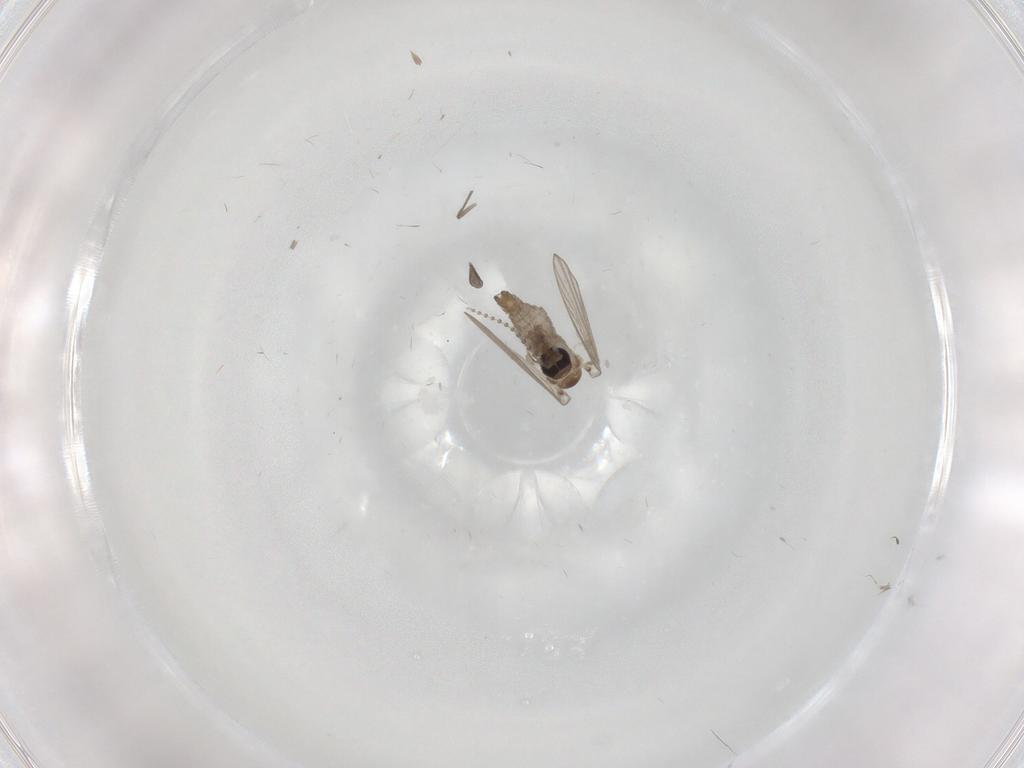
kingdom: Animalia
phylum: Arthropoda
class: Insecta
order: Diptera
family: Sciaridae
